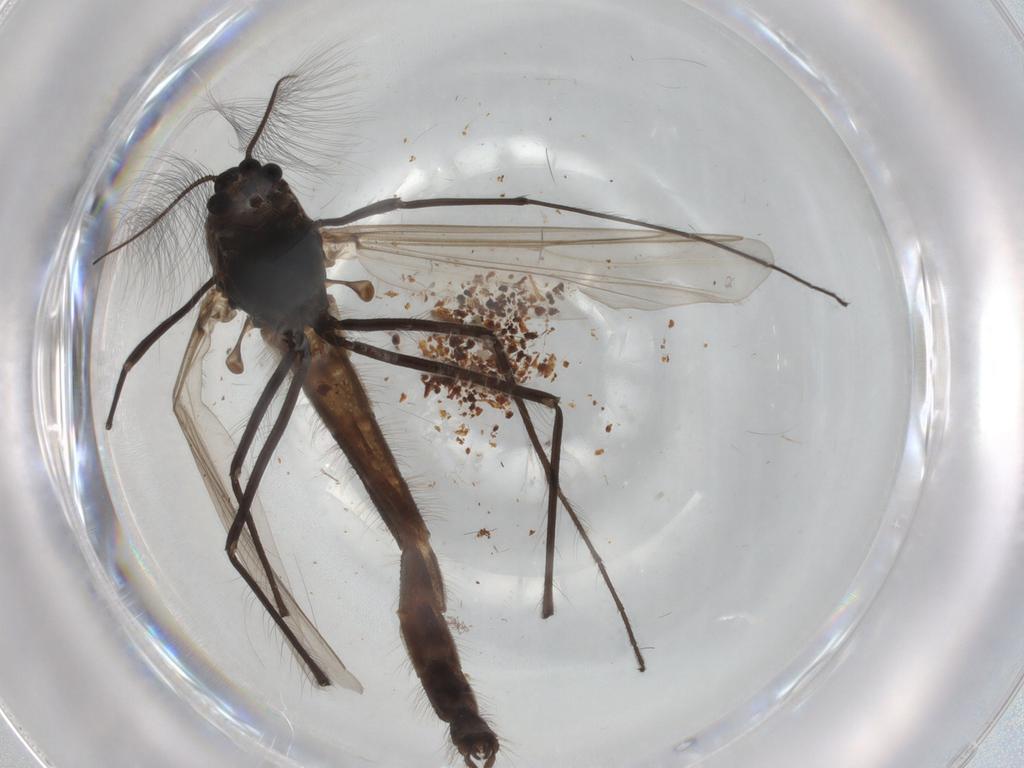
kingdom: Animalia
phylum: Arthropoda
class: Insecta
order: Diptera
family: Chironomidae
